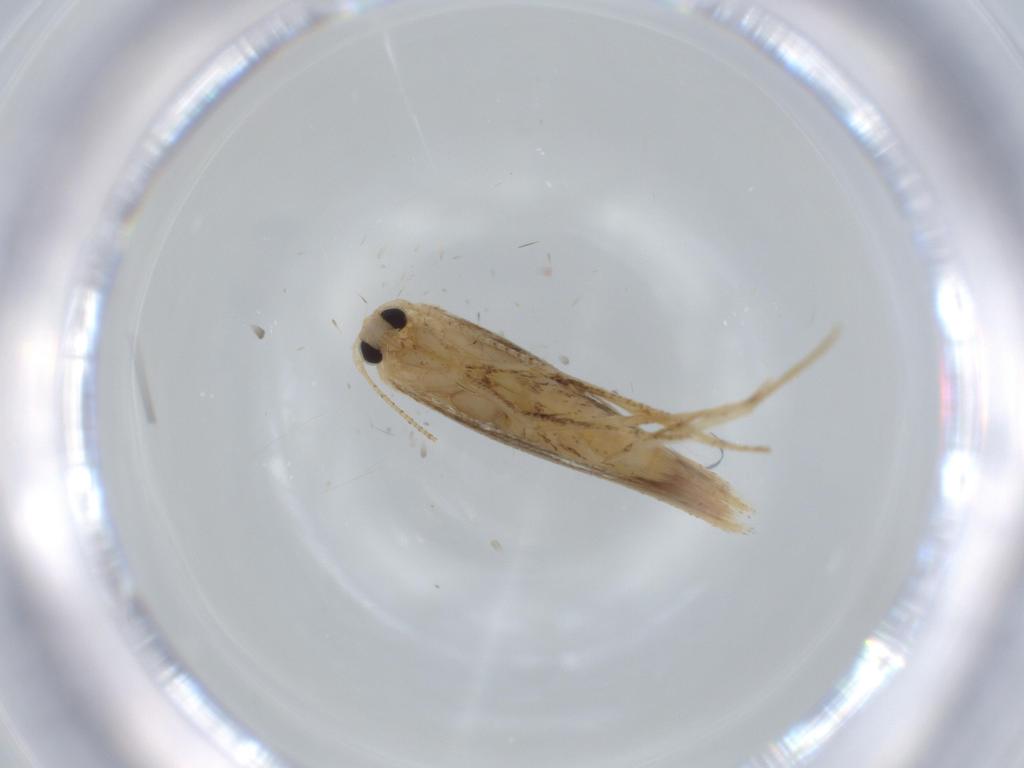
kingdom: Animalia
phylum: Arthropoda
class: Insecta
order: Lepidoptera
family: Bedelliidae
